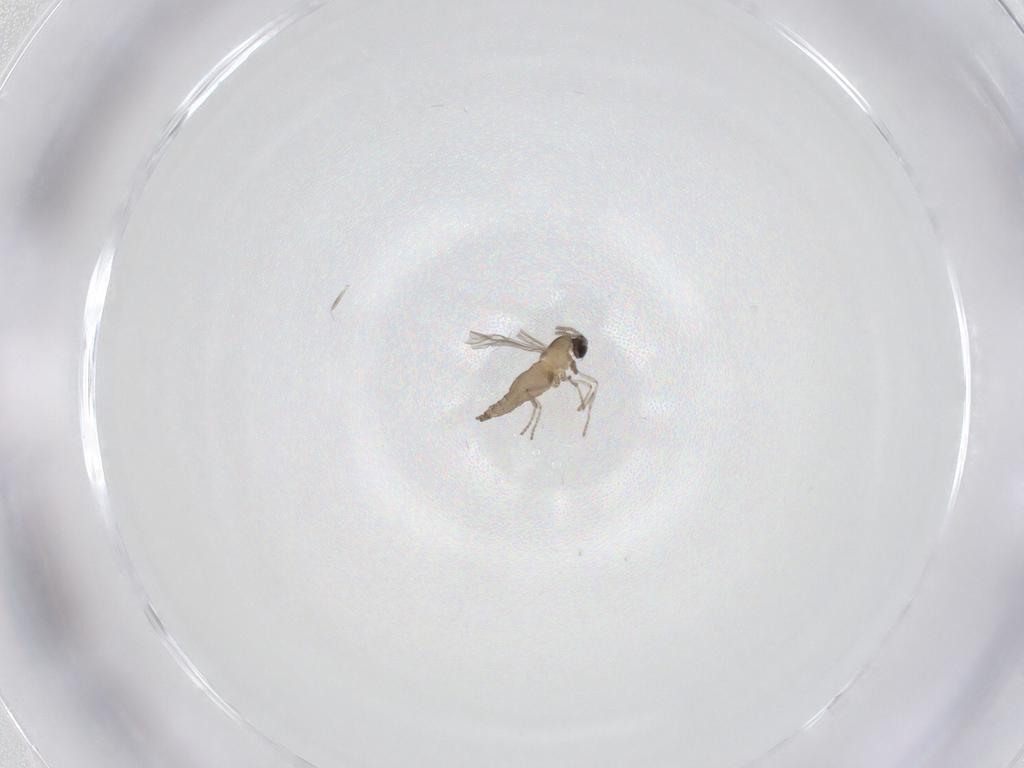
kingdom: Animalia
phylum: Arthropoda
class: Insecta
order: Diptera
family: Cecidomyiidae
